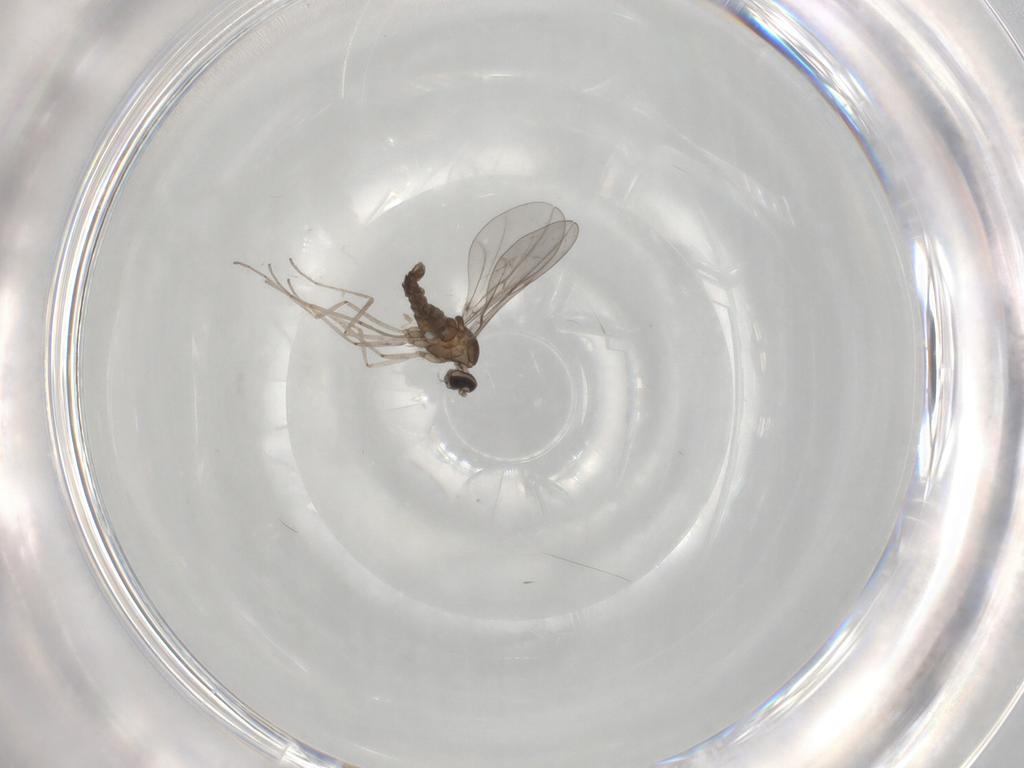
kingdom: Animalia
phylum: Arthropoda
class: Insecta
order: Diptera
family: Cecidomyiidae
